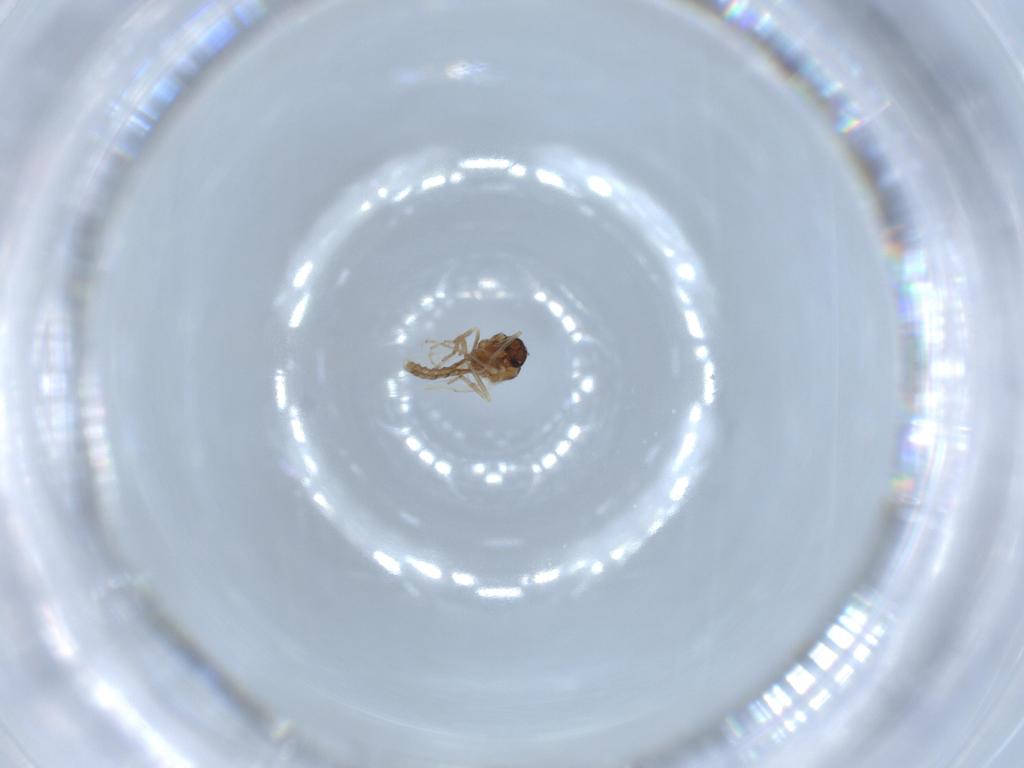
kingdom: Animalia
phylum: Arthropoda
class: Insecta
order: Diptera
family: Ceratopogonidae
